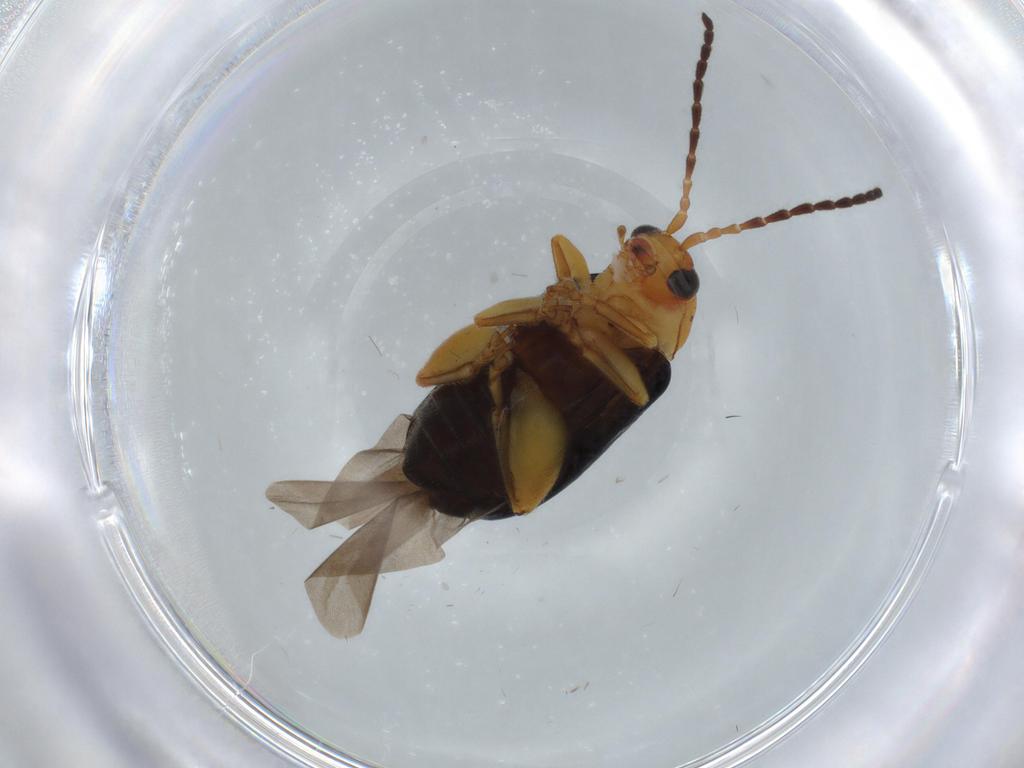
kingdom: Animalia
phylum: Arthropoda
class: Insecta
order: Coleoptera
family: Chrysomelidae
